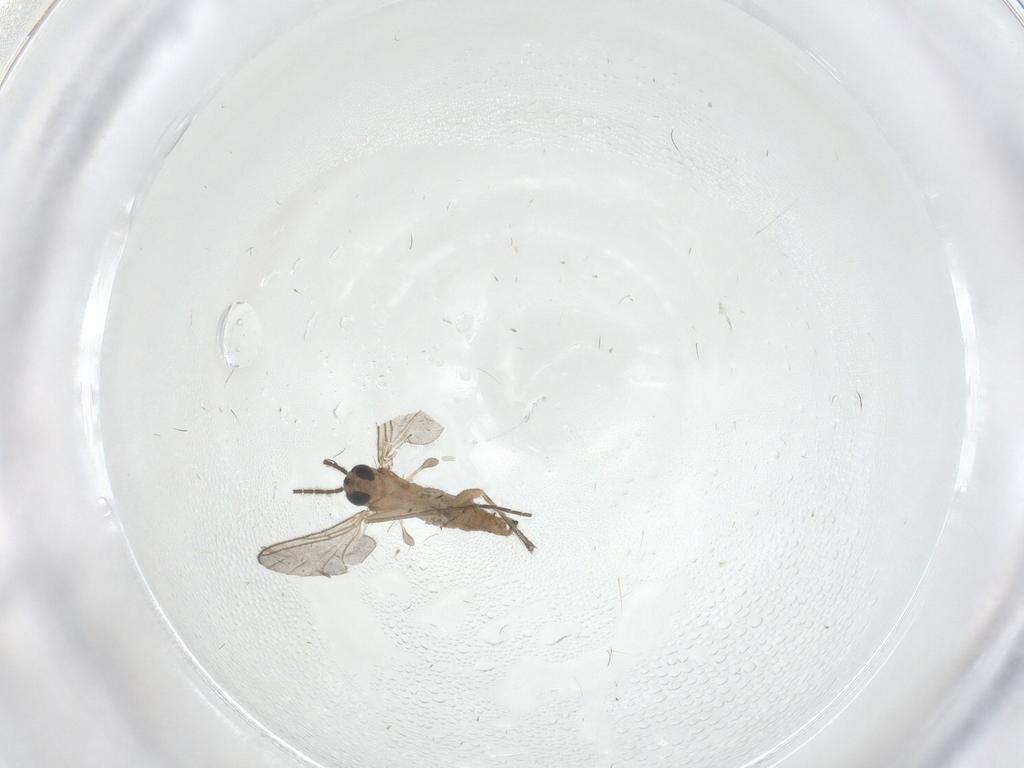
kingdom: Animalia
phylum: Arthropoda
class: Insecta
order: Diptera
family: Sciaridae
